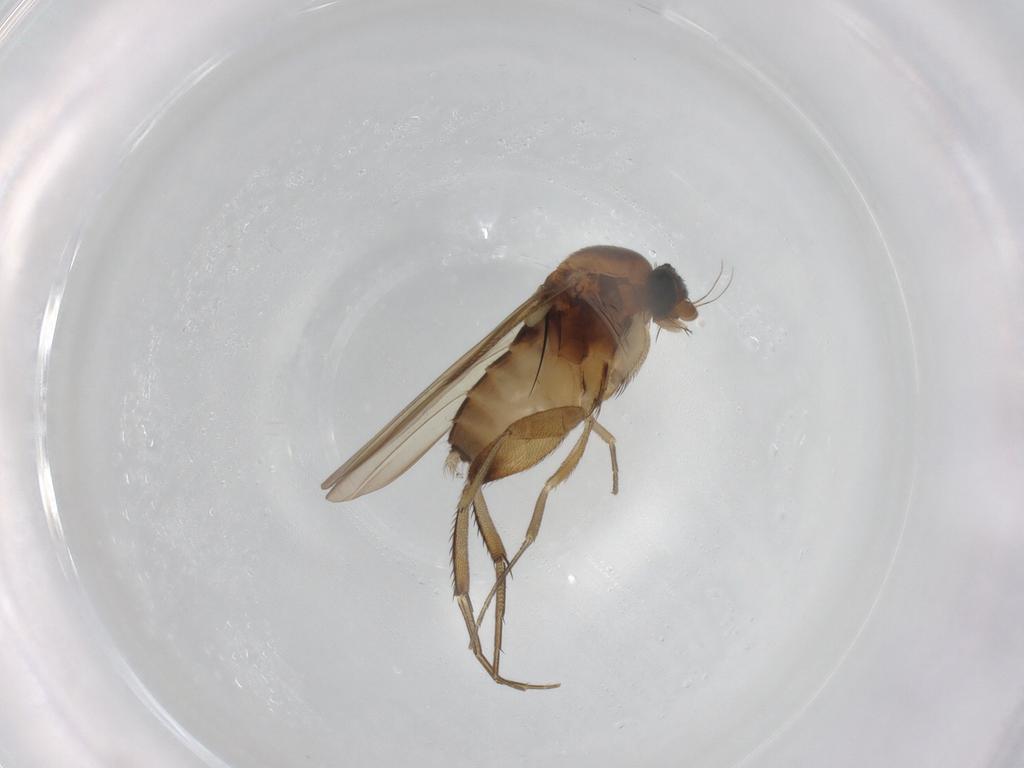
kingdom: Animalia
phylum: Arthropoda
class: Insecta
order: Diptera
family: Phoridae
